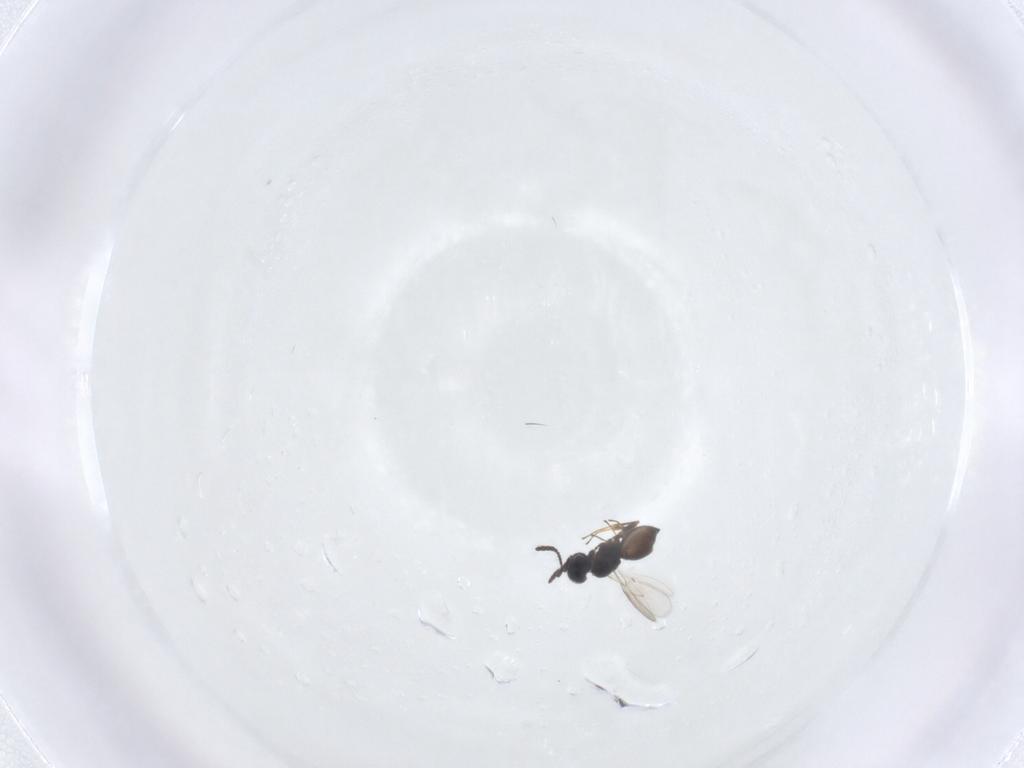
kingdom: Animalia
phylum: Arthropoda
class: Insecta
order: Hymenoptera
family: Scelionidae
